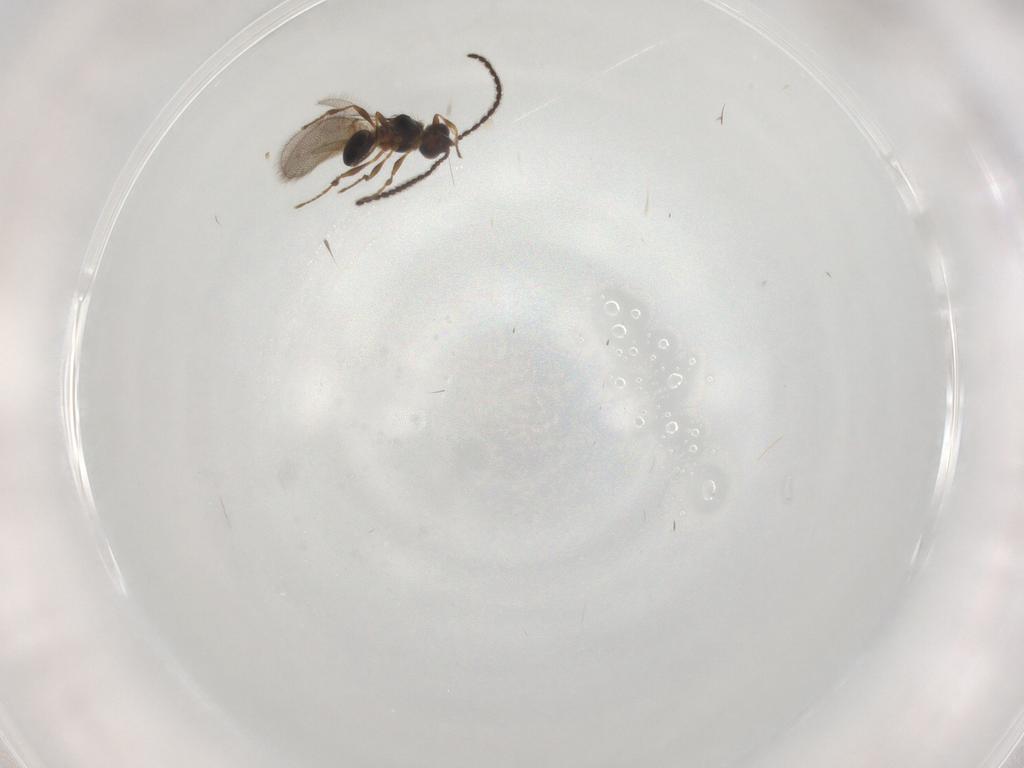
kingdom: Animalia
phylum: Arthropoda
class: Insecta
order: Hymenoptera
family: Diapriidae
